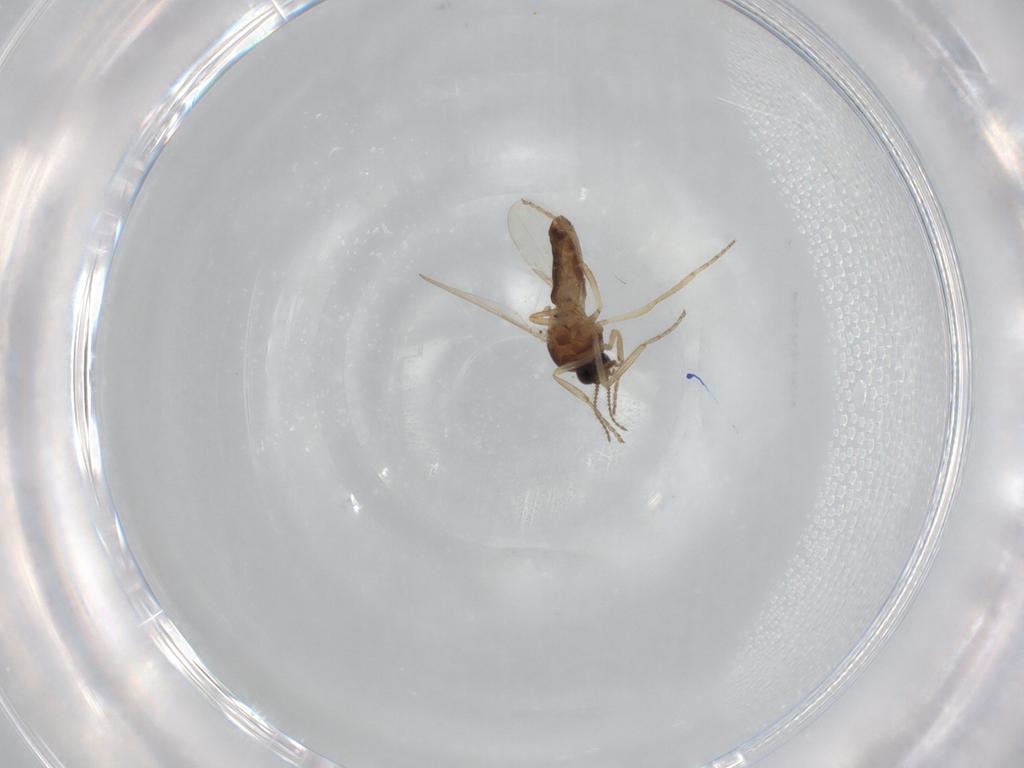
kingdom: Animalia
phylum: Arthropoda
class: Insecta
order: Diptera
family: Ceratopogonidae
